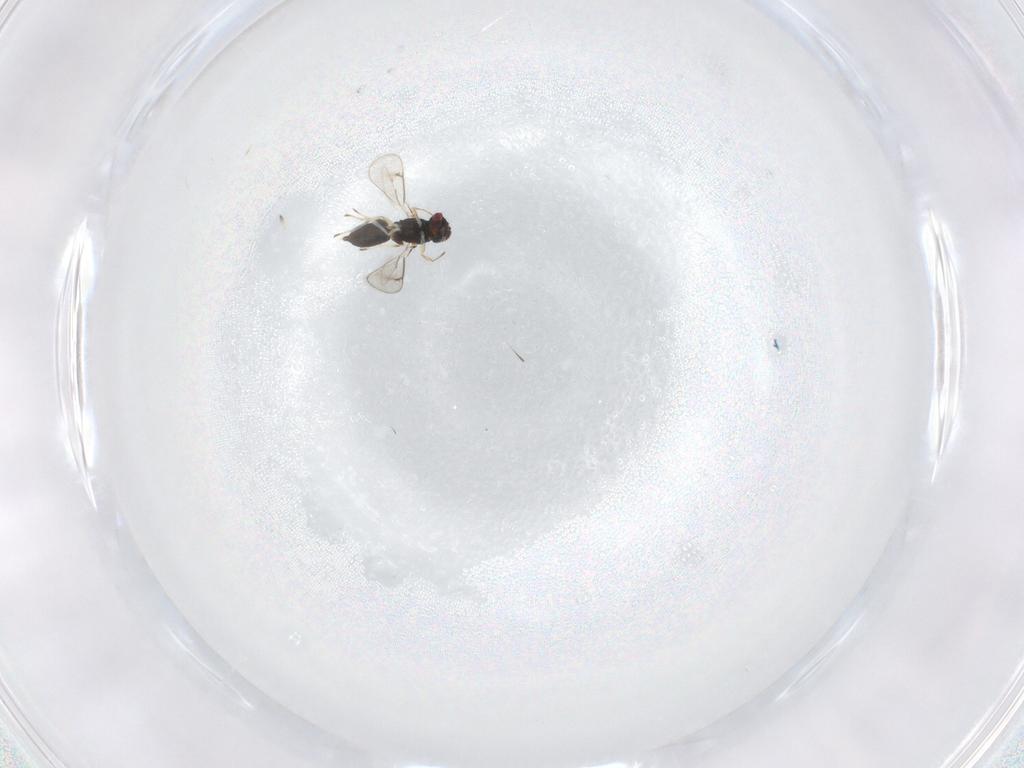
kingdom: Animalia
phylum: Arthropoda
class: Insecta
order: Hymenoptera
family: Eulophidae
